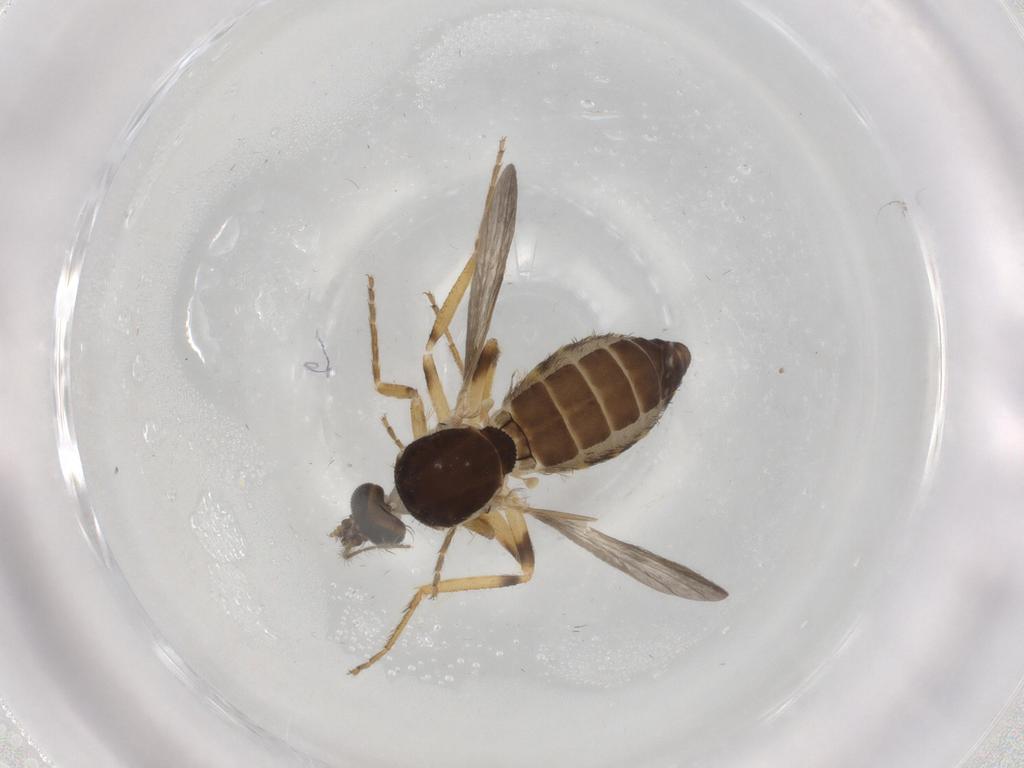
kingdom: Animalia
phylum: Arthropoda
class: Insecta
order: Diptera
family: Ceratopogonidae
